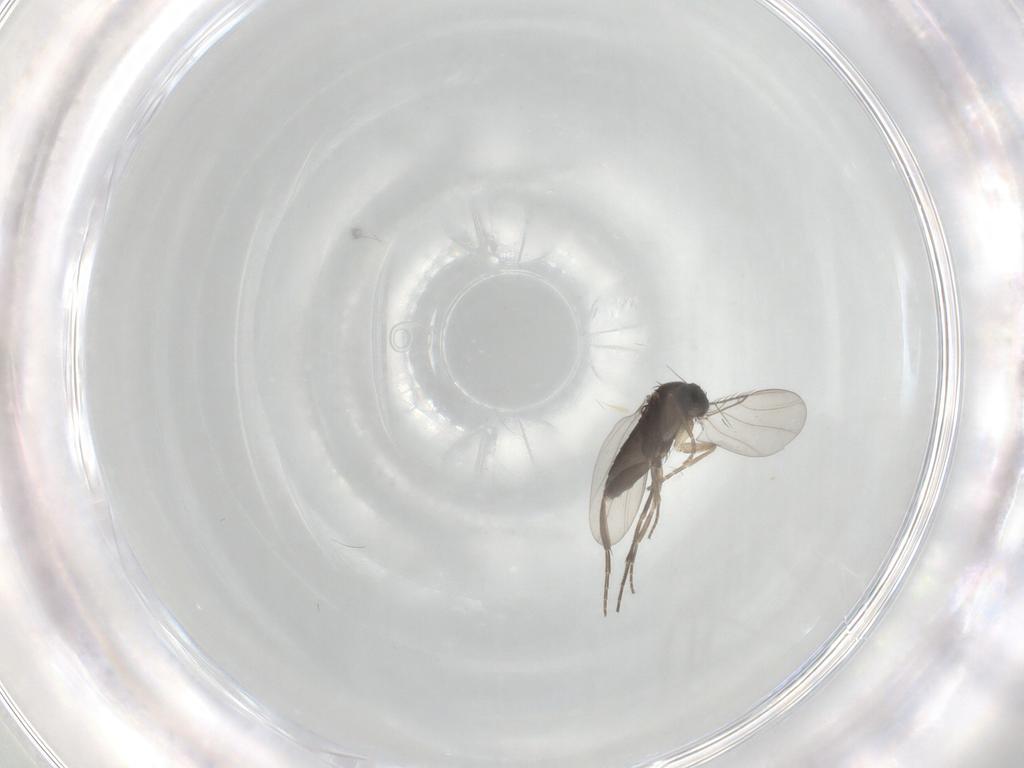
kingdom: Animalia
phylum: Arthropoda
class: Insecta
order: Diptera
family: Phoridae
